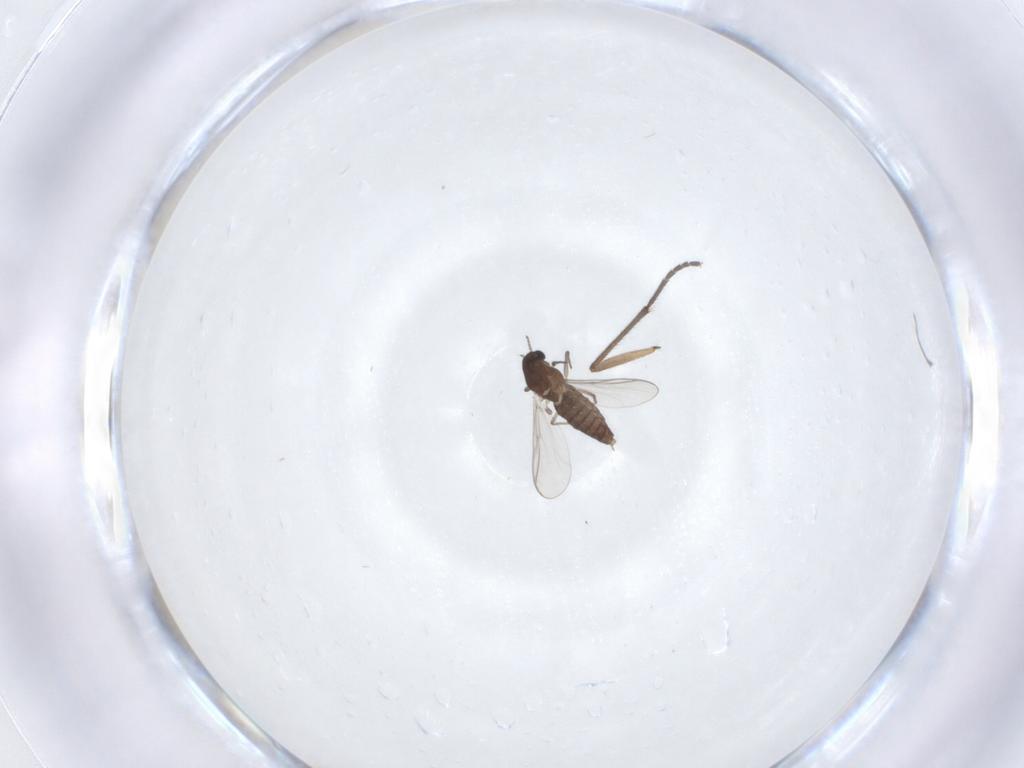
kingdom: Animalia
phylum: Arthropoda
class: Insecta
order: Diptera
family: Chironomidae
